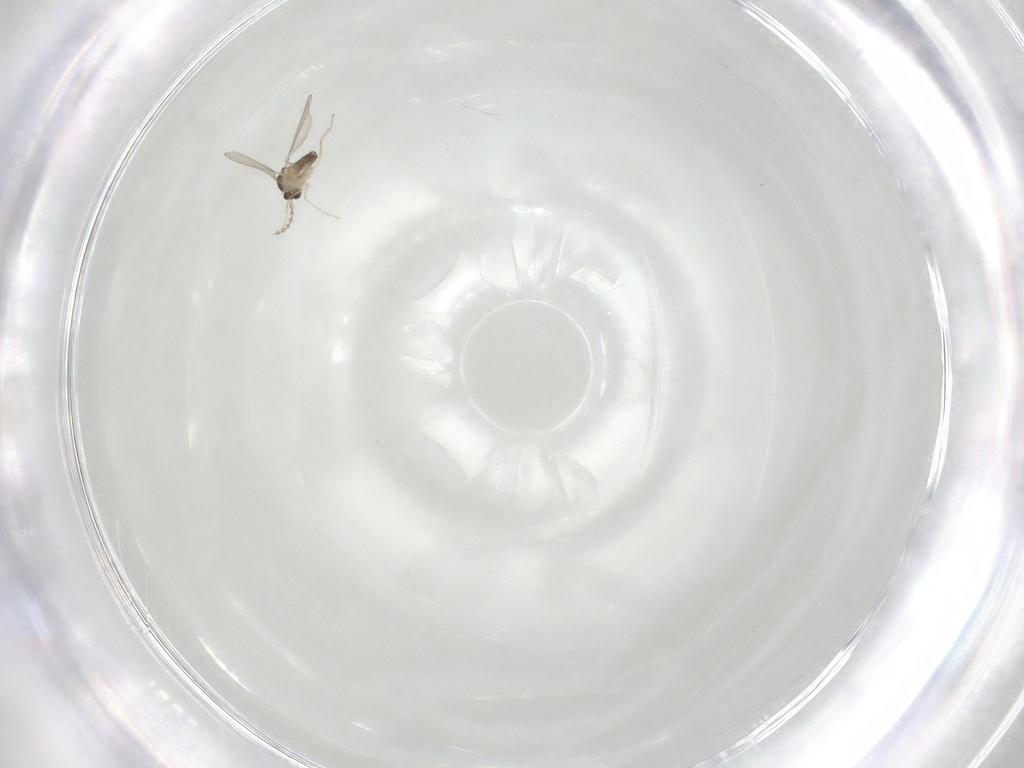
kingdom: Animalia
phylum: Arthropoda
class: Insecta
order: Diptera
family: Cecidomyiidae
